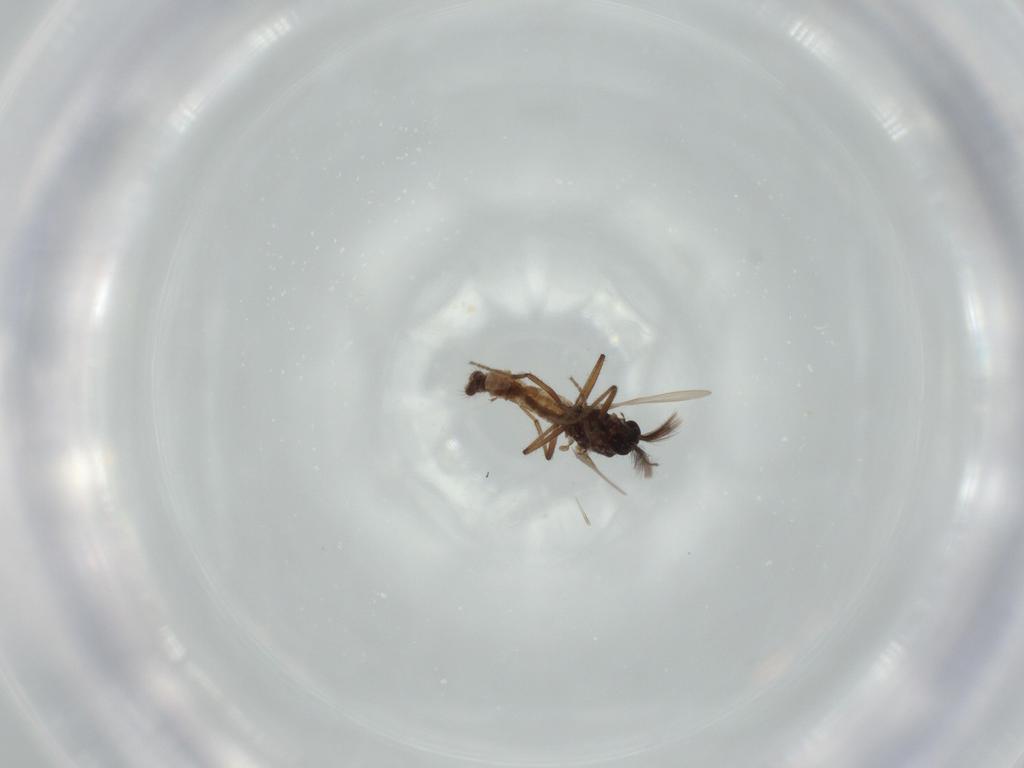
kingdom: Animalia
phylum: Arthropoda
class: Insecta
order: Diptera
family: Ceratopogonidae
